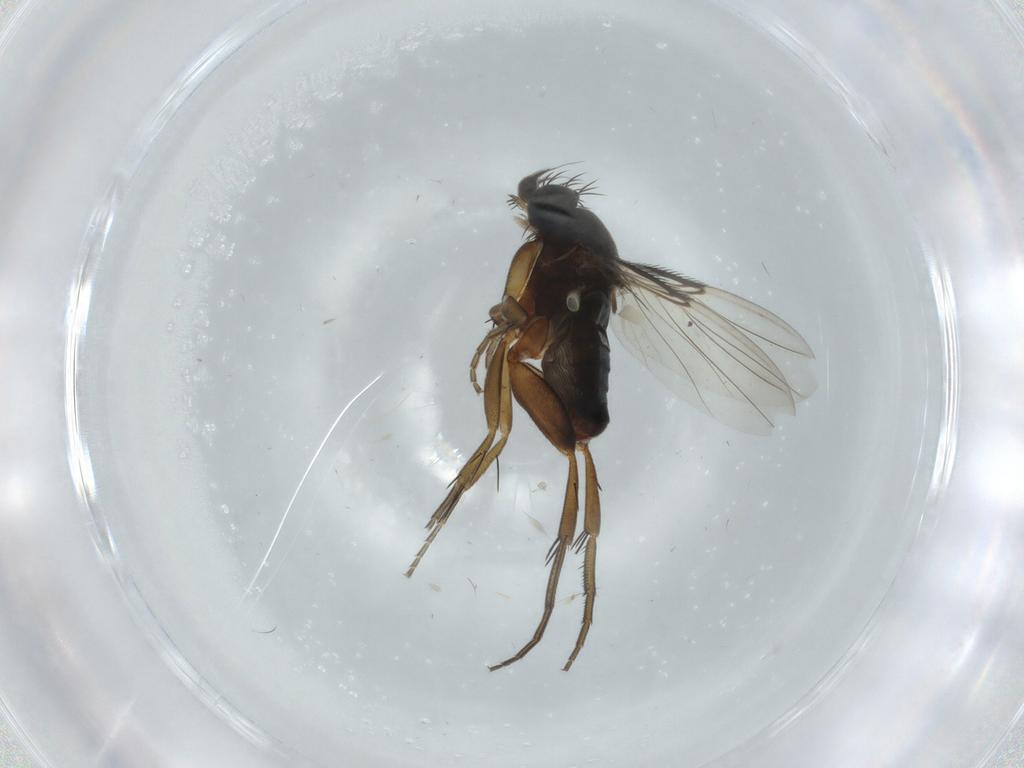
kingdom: Animalia
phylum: Arthropoda
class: Insecta
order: Diptera
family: Phoridae
